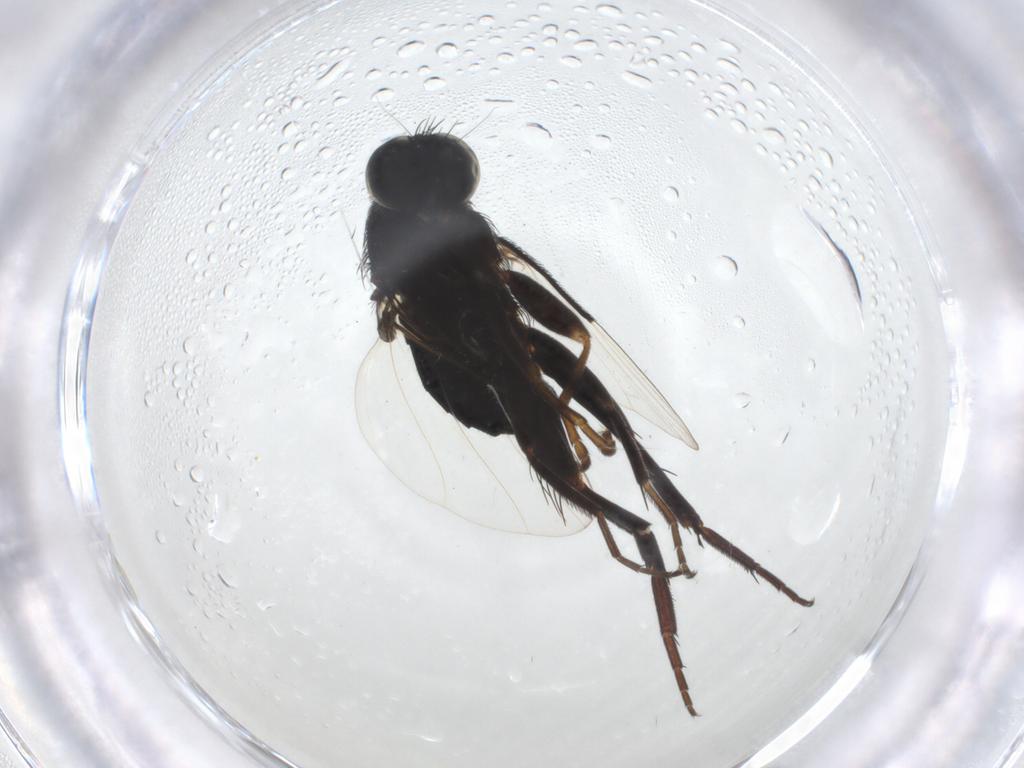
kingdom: Animalia
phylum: Arthropoda
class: Insecta
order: Diptera
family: Phoridae
